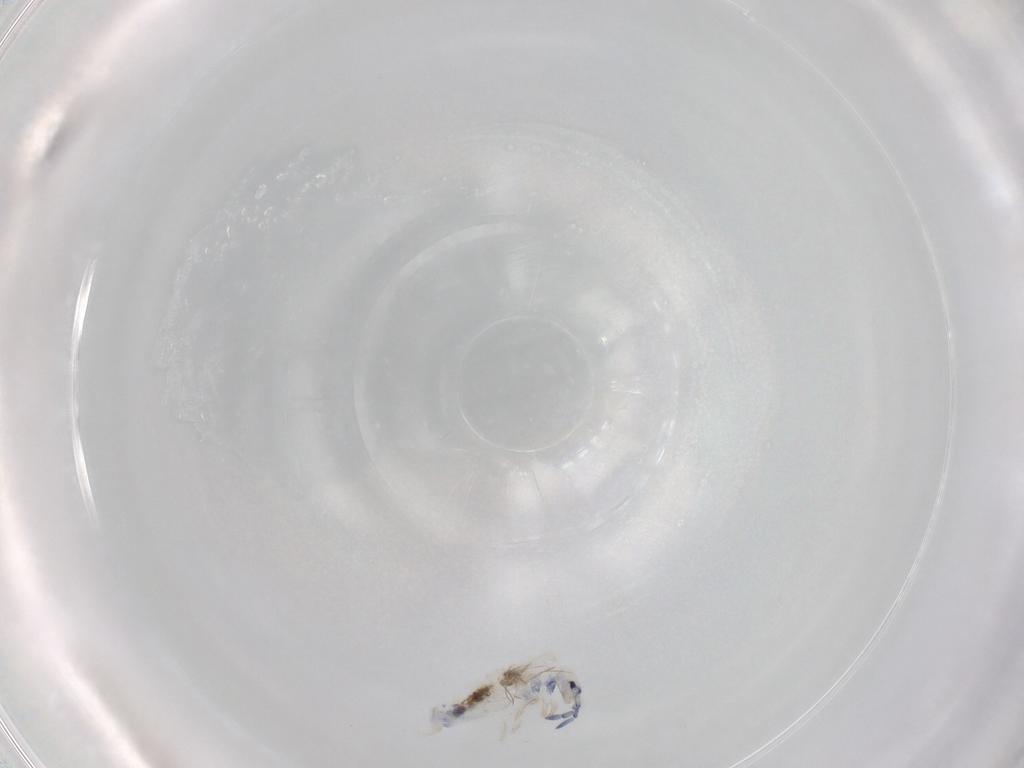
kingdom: Animalia
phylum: Arthropoda
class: Collembola
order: Entomobryomorpha
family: Entomobryidae
